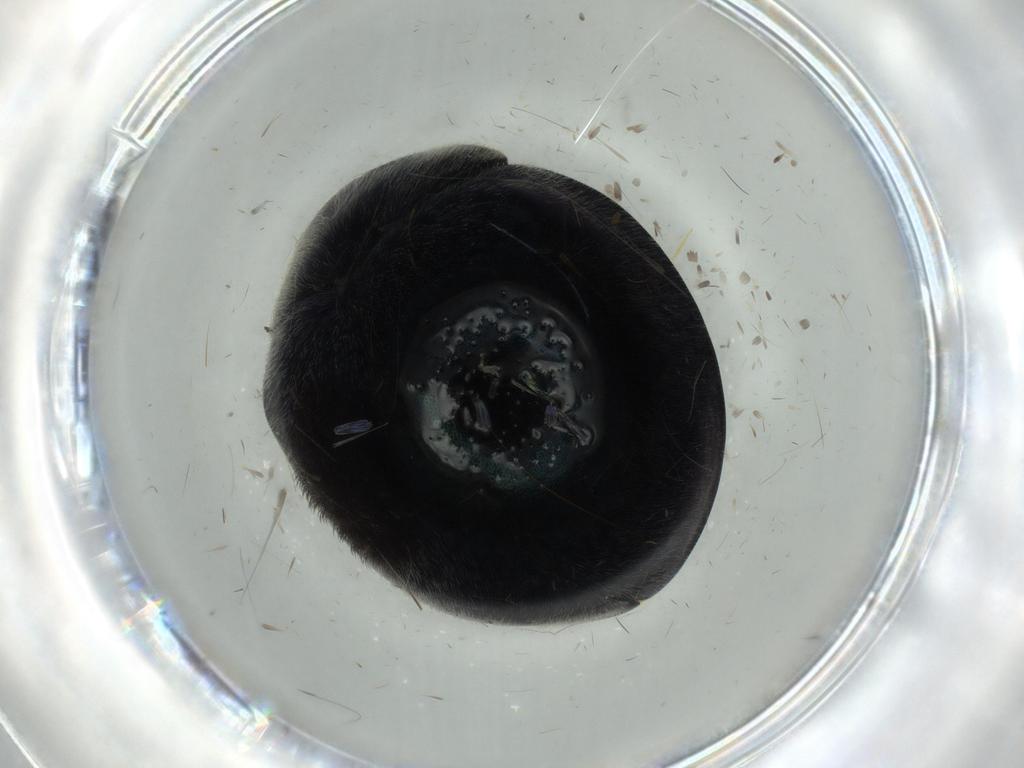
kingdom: Animalia
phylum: Arthropoda
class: Insecta
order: Coleoptera
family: Coccinellidae
